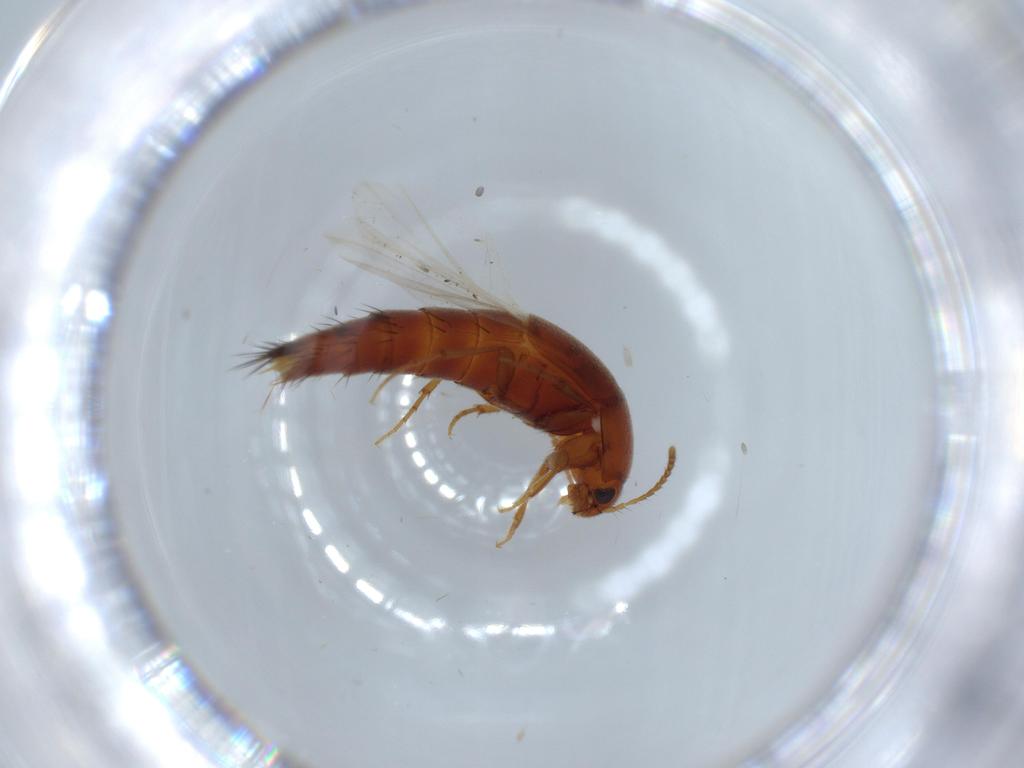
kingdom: Animalia
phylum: Arthropoda
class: Insecta
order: Coleoptera
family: Staphylinidae
